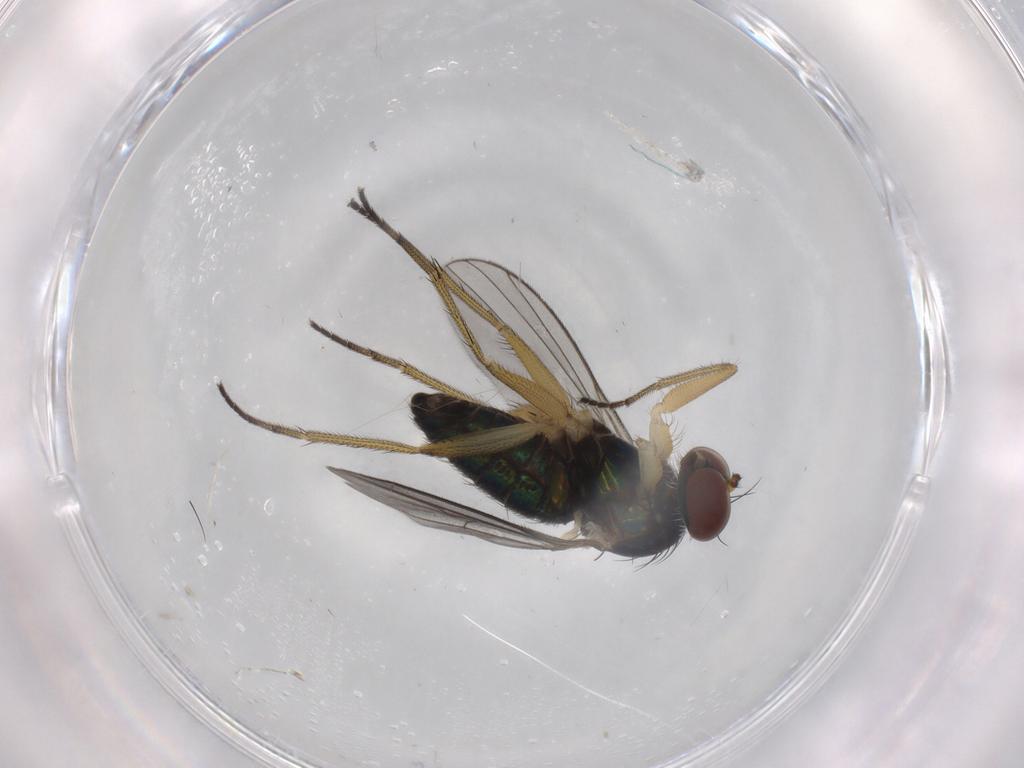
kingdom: Animalia
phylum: Arthropoda
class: Insecta
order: Diptera
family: Dolichopodidae
